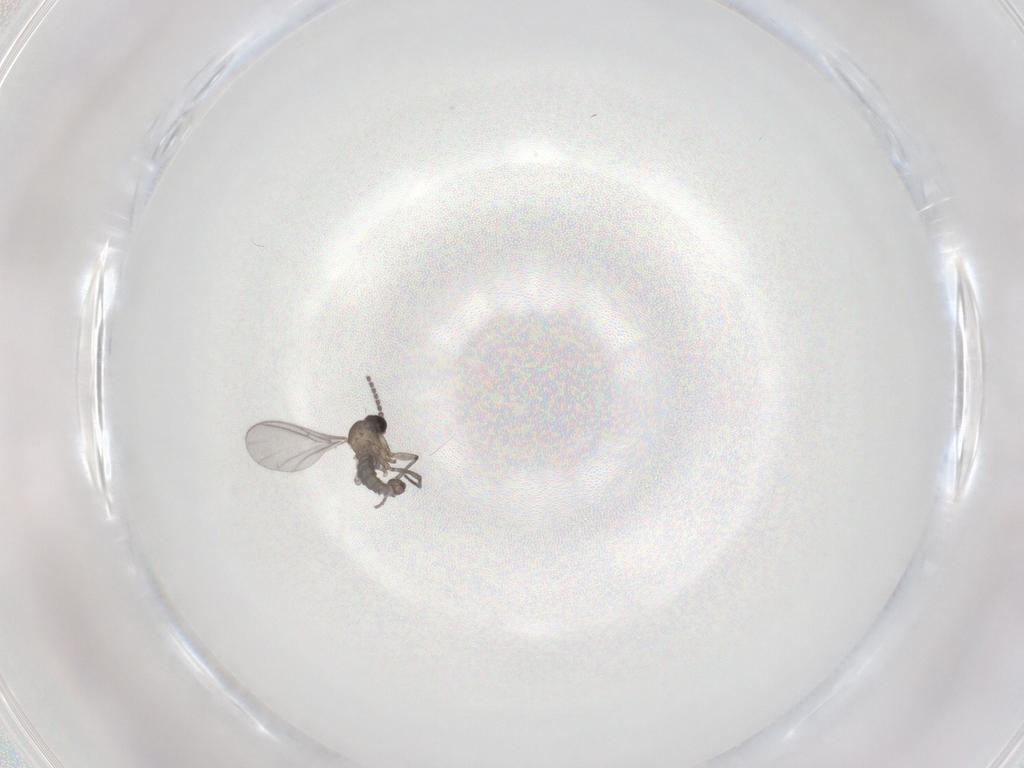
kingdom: Animalia
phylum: Arthropoda
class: Insecta
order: Diptera
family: Sciaridae
